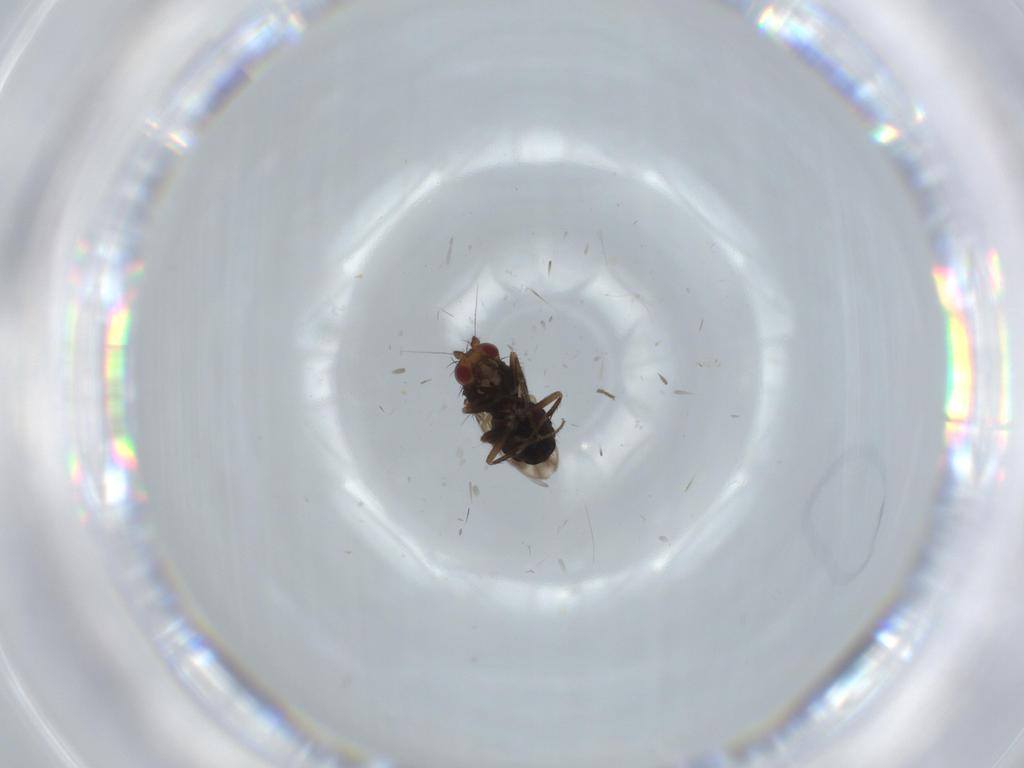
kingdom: Animalia
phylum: Arthropoda
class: Insecta
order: Diptera
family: Sphaeroceridae
